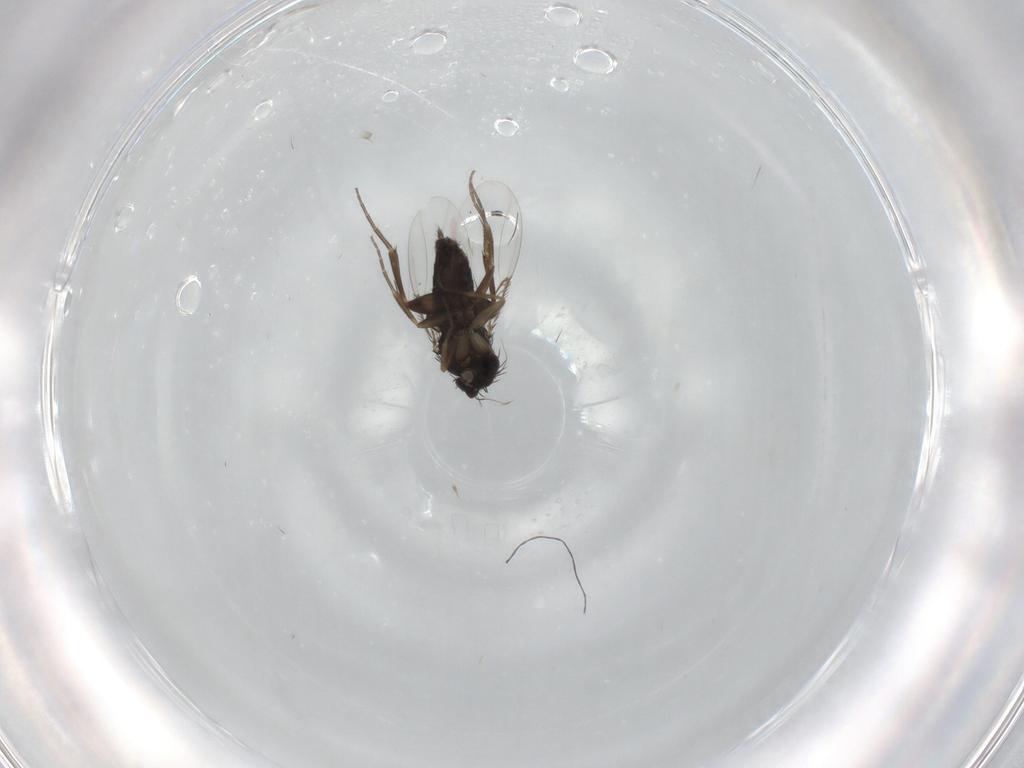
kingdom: Animalia
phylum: Arthropoda
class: Insecta
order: Diptera
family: Phoridae
